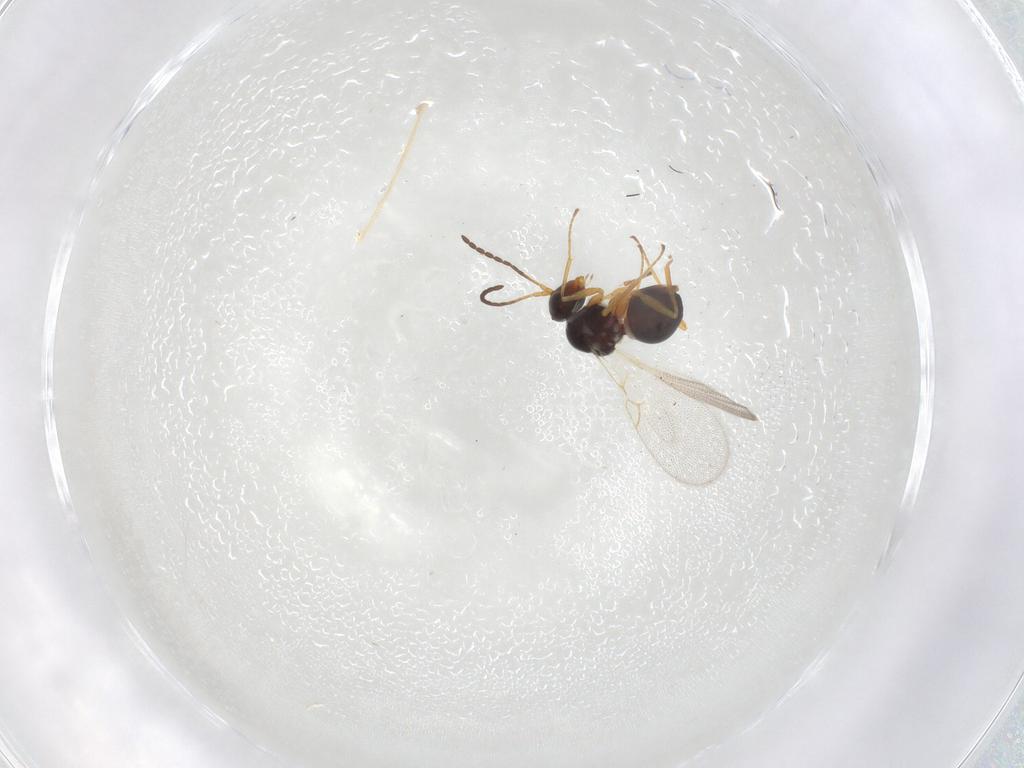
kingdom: Animalia
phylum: Arthropoda
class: Insecta
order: Hymenoptera
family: Figitidae
